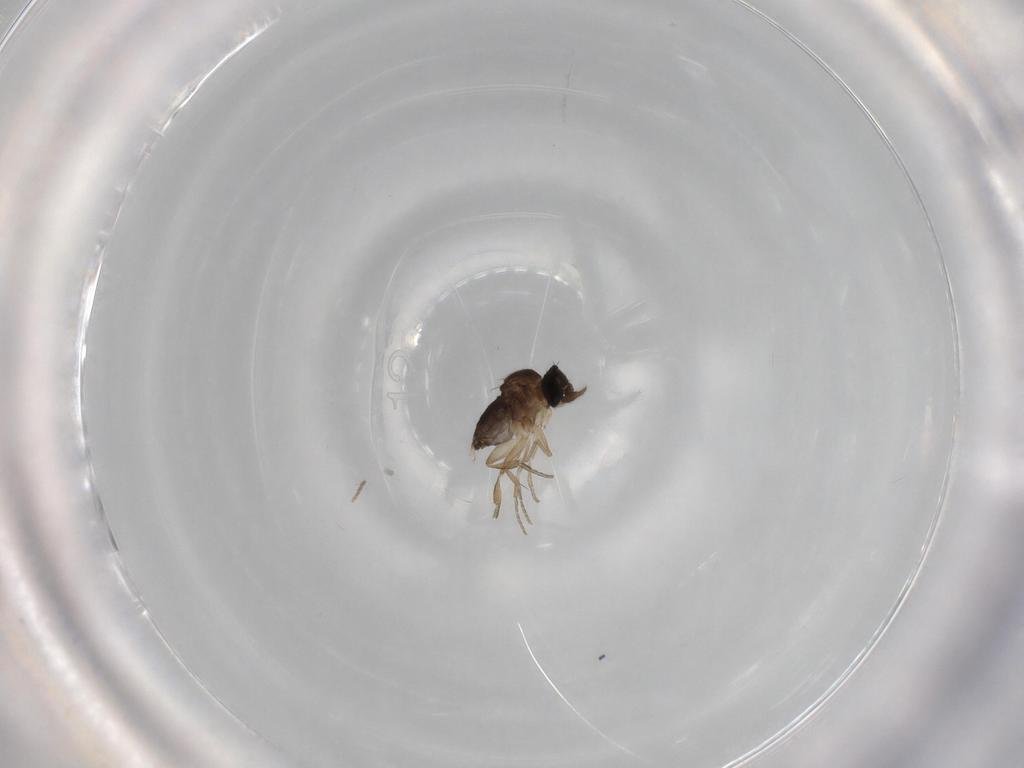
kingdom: Animalia
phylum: Arthropoda
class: Insecta
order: Diptera
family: Phoridae
